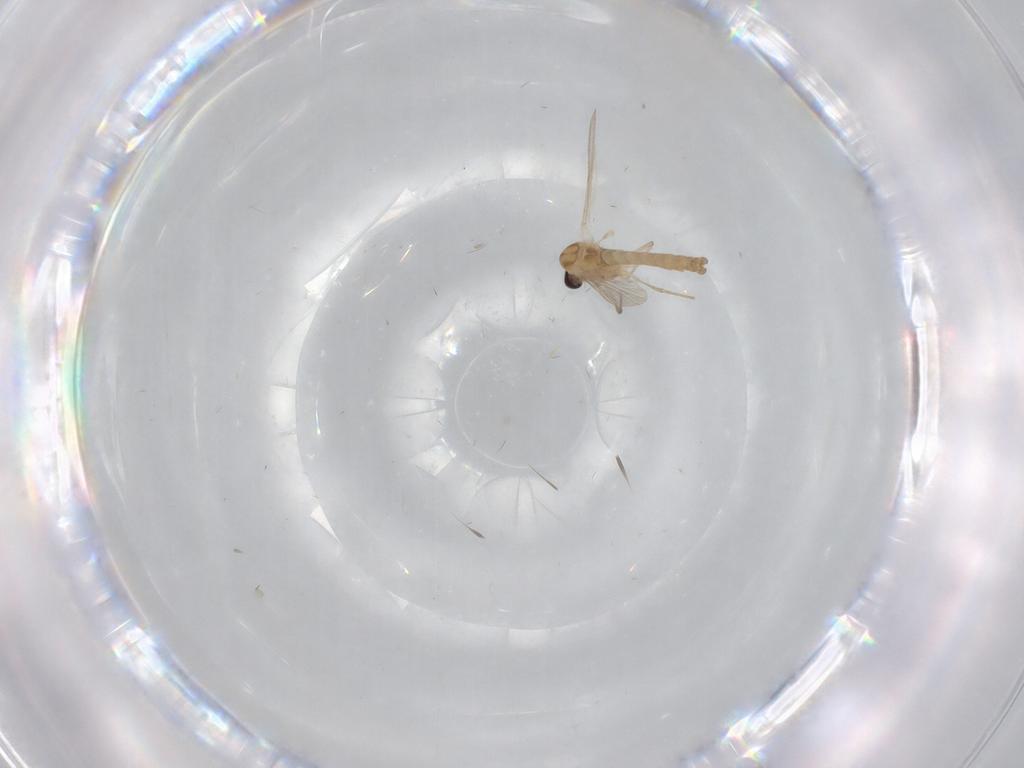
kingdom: Animalia
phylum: Arthropoda
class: Insecta
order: Diptera
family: Chironomidae
